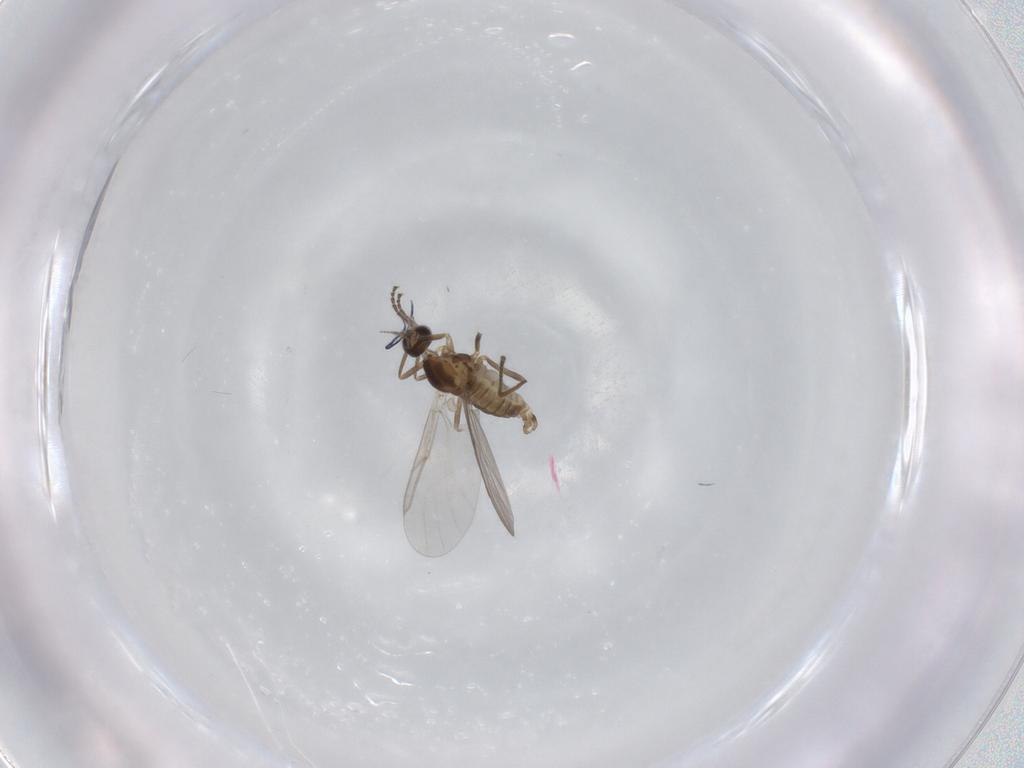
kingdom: Animalia
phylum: Arthropoda
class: Insecta
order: Diptera
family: Cecidomyiidae
